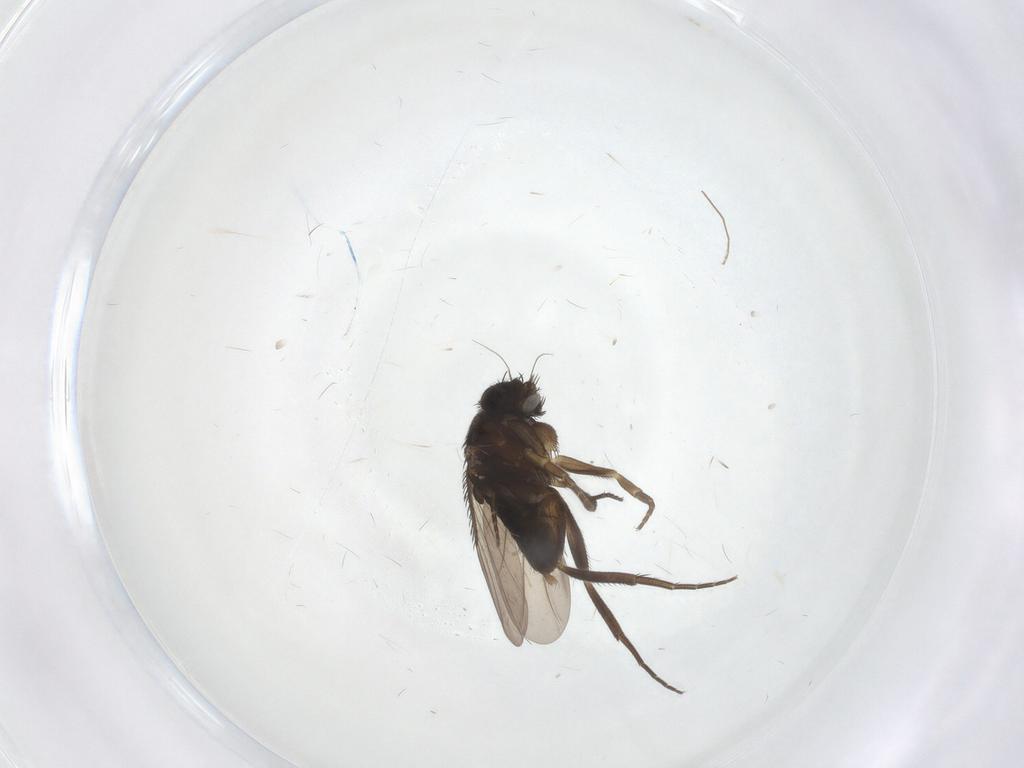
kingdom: Animalia
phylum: Arthropoda
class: Insecta
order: Diptera
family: Phoridae
